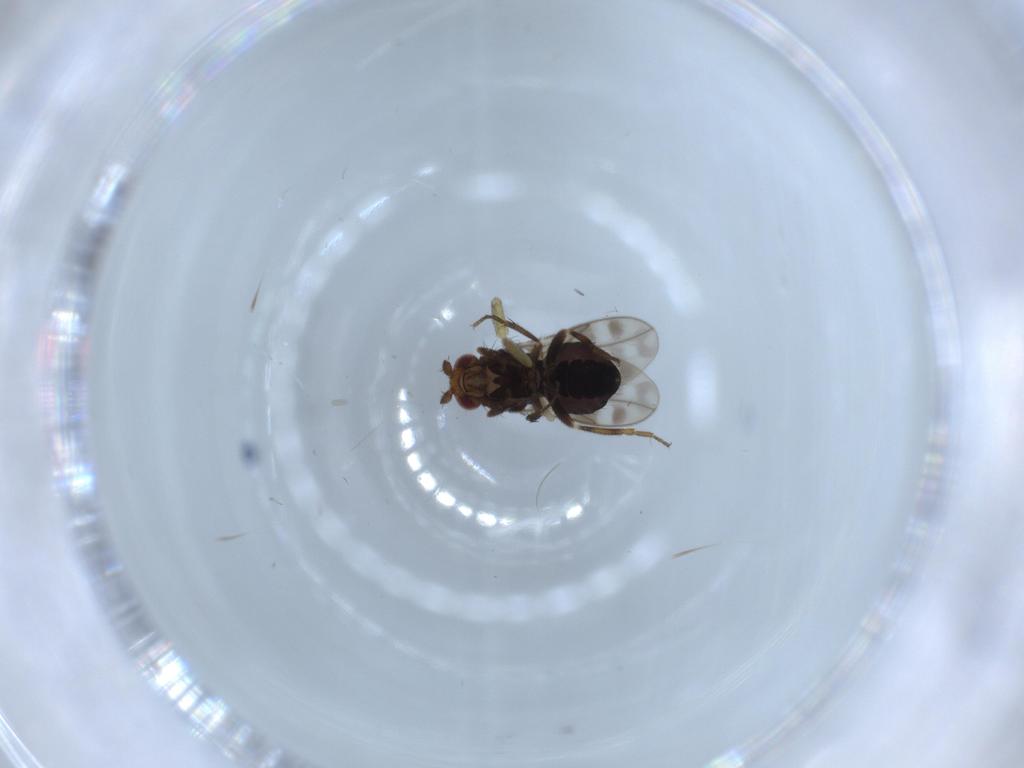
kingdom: Animalia
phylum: Arthropoda
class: Insecta
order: Diptera
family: Sphaeroceridae
